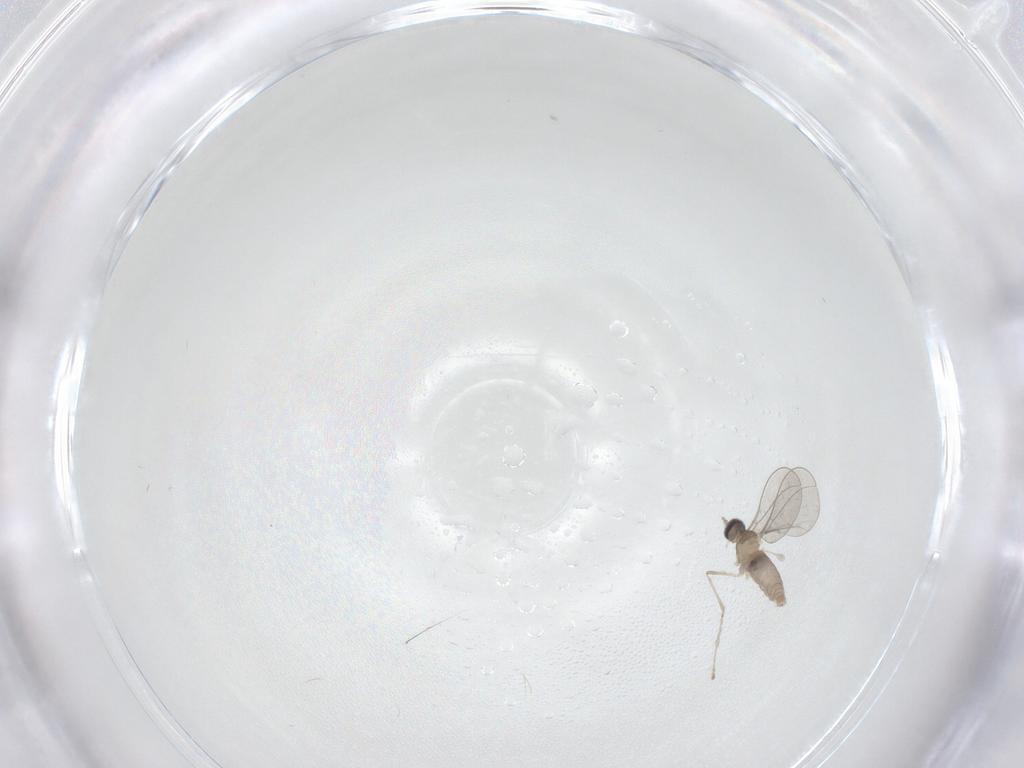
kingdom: Animalia
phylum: Arthropoda
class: Insecta
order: Diptera
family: Cecidomyiidae
